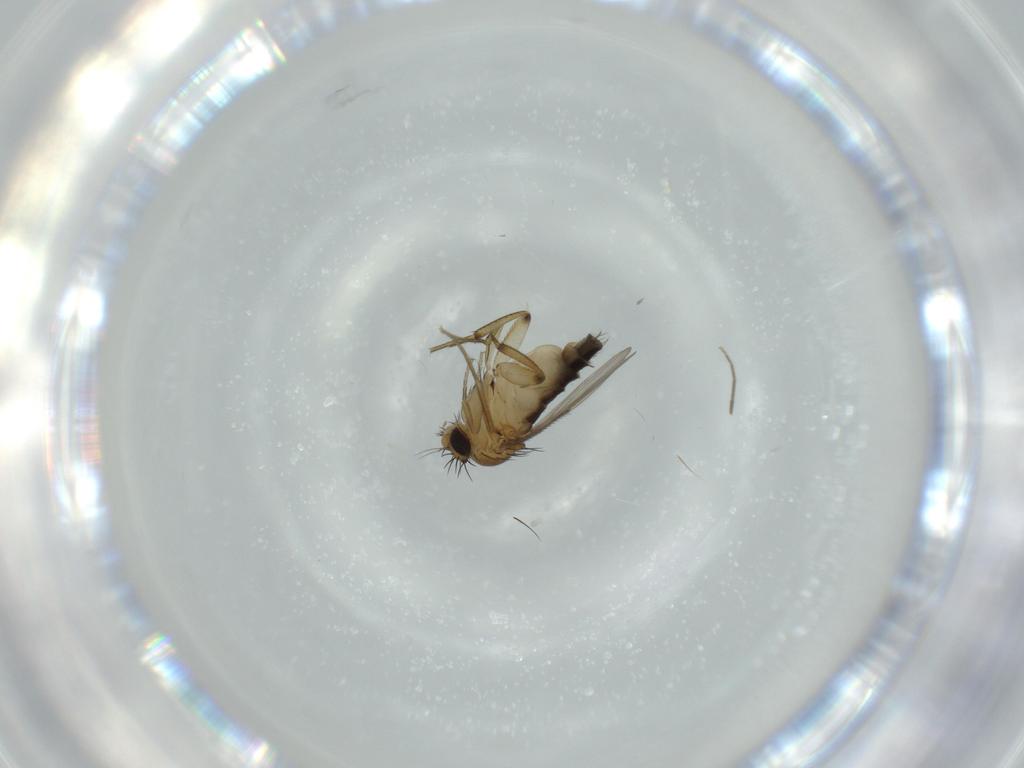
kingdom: Animalia
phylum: Arthropoda
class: Insecta
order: Diptera
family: Phoridae
